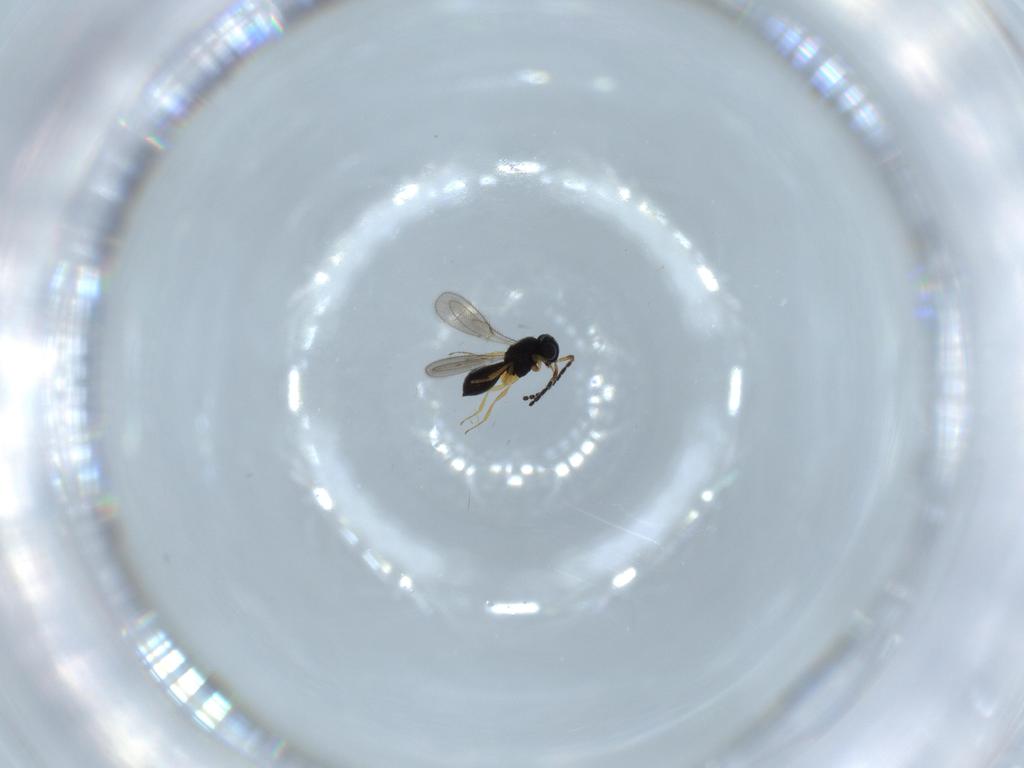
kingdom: Animalia
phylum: Arthropoda
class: Insecta
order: Hymenoptera
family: Scelionidae
